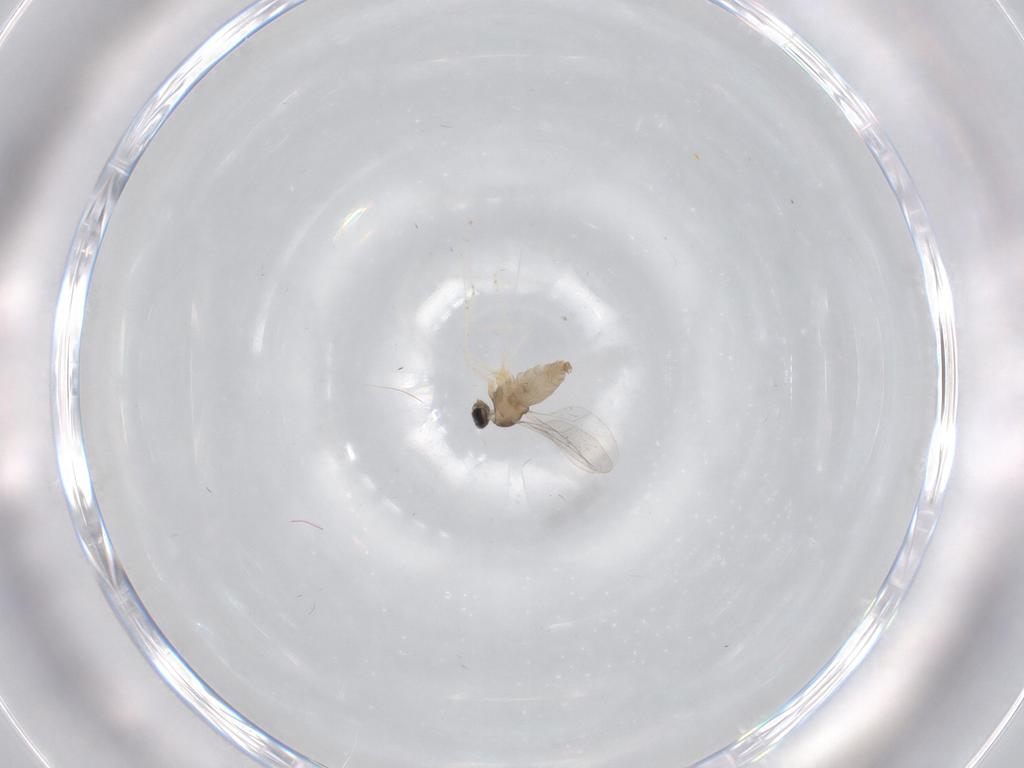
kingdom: Animalia
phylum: Arthropoda
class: Insecta
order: Diptera
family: Cecidomyiidae
